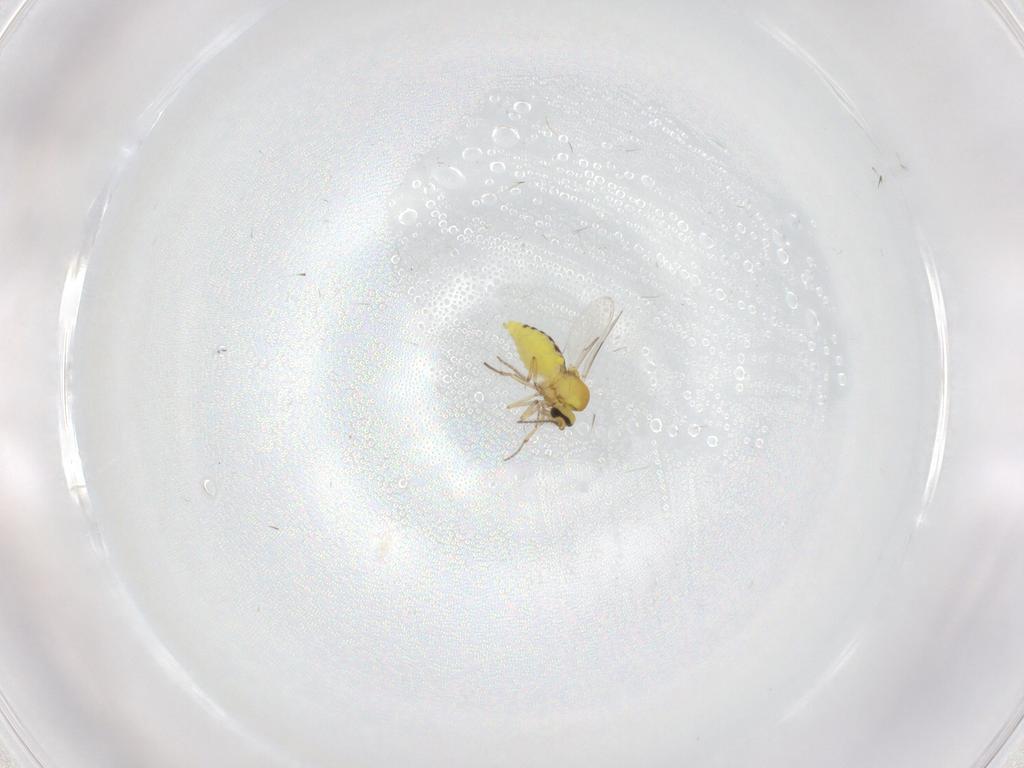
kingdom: Animalia
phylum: Arthropoda
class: Insecta
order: Diptera
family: Ceratopogonidae
